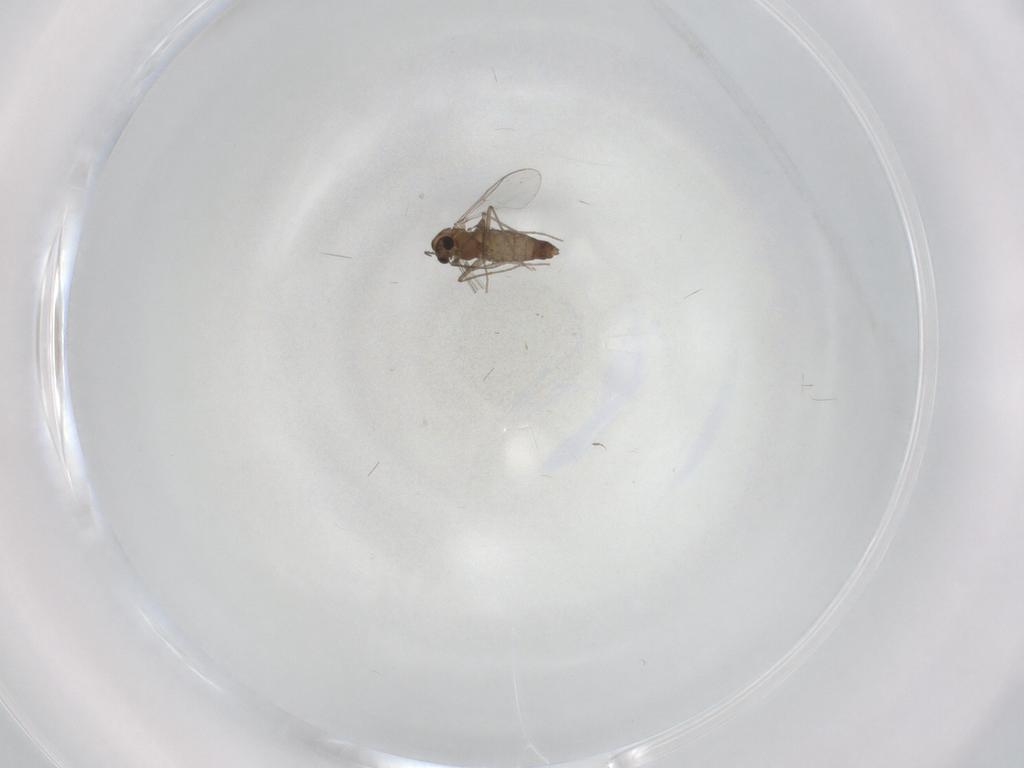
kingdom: Animalia
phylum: Arthropoda
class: Insecta
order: Diptera
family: Chironomidae
